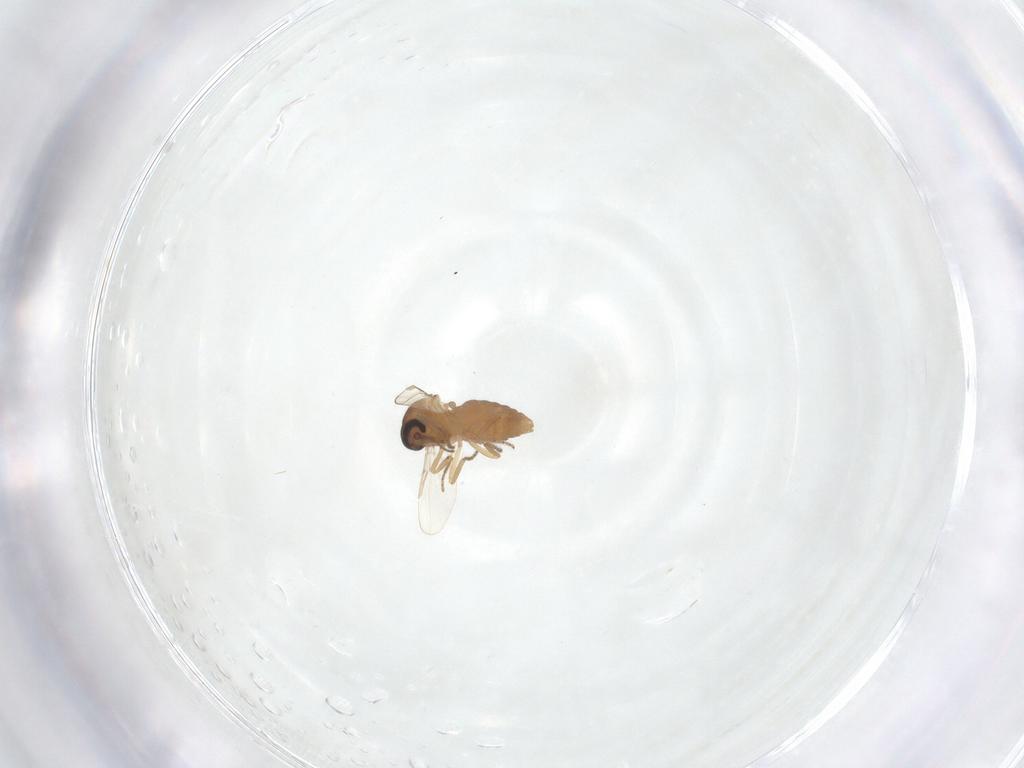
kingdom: Animalia
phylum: Arthropoda
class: Insecta
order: Diptera
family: Ceratopogonidae
